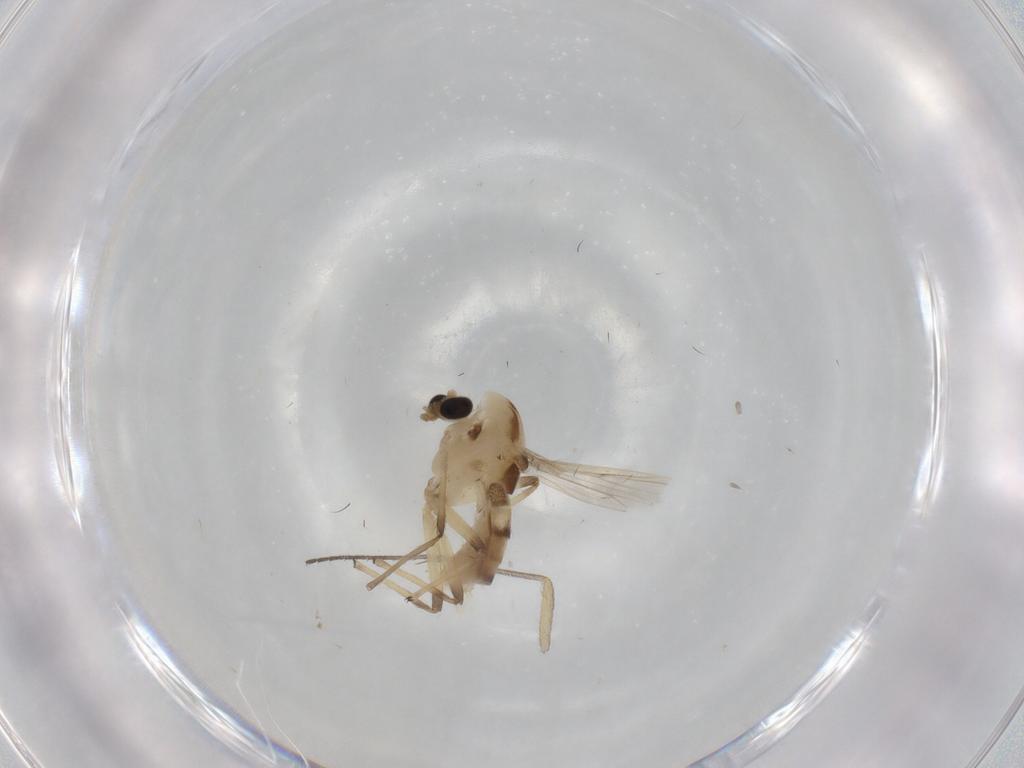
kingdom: Animalia
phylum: Arthropoda
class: Insecta
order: Diptera
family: Chironomidae
